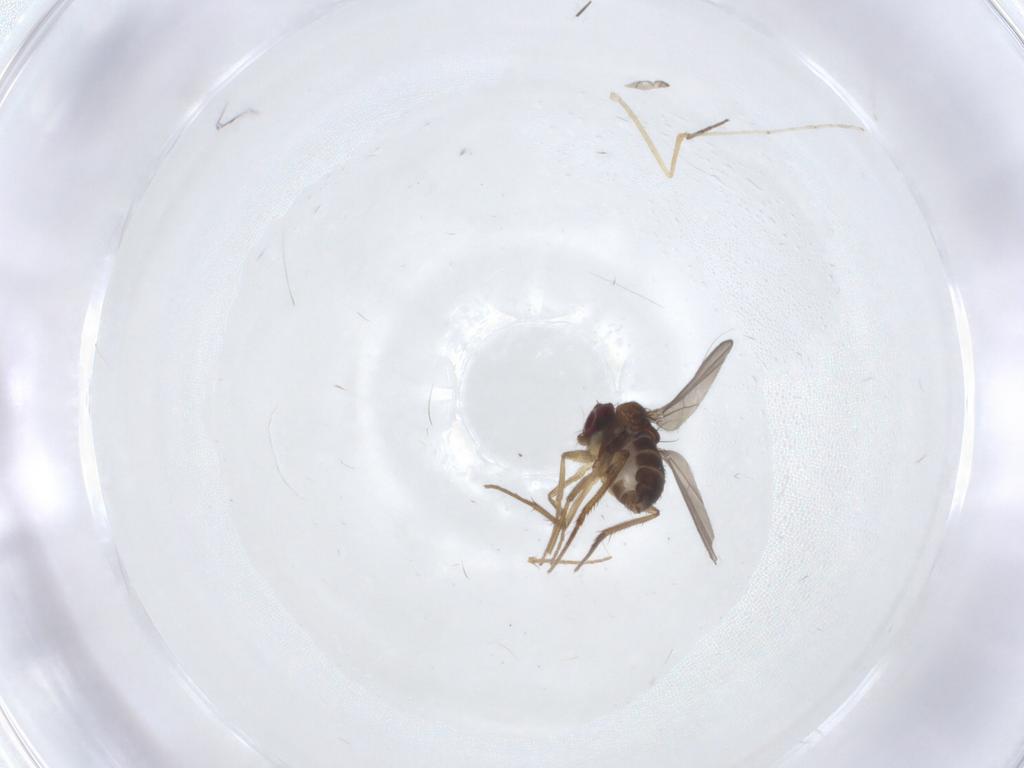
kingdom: Animalia
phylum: Arthropoda
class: Insecta
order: Diptera
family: Dolichopodidae
